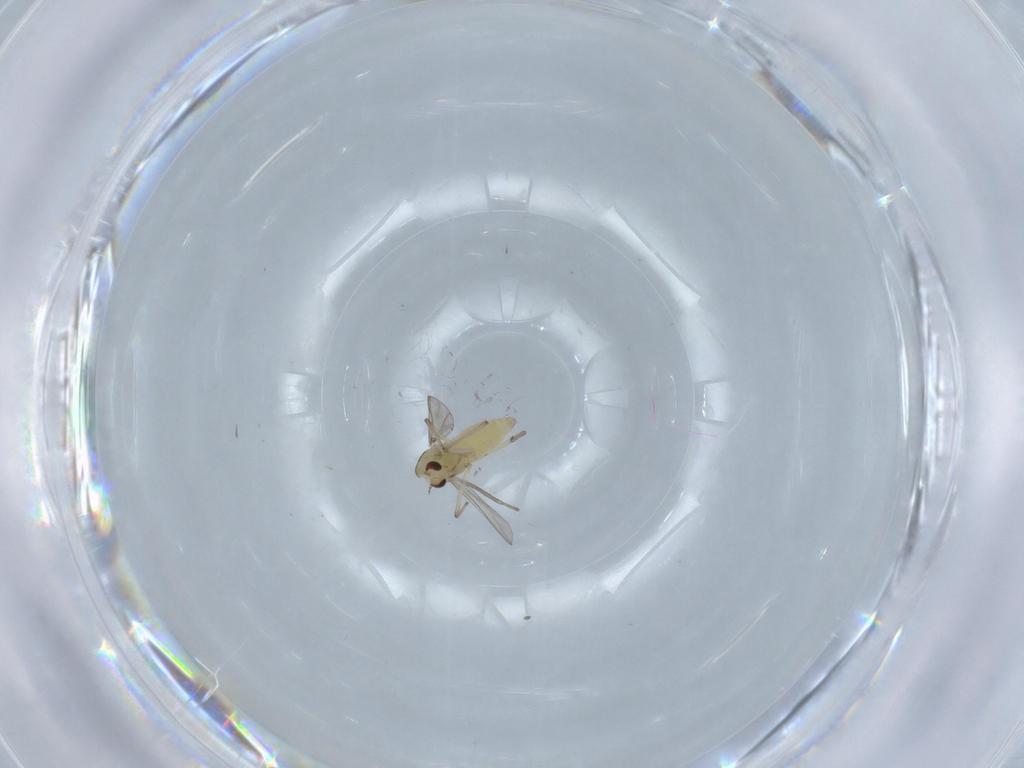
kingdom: Animalia
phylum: Arthropoda
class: Insecta
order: Diptera
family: Chironomidae
